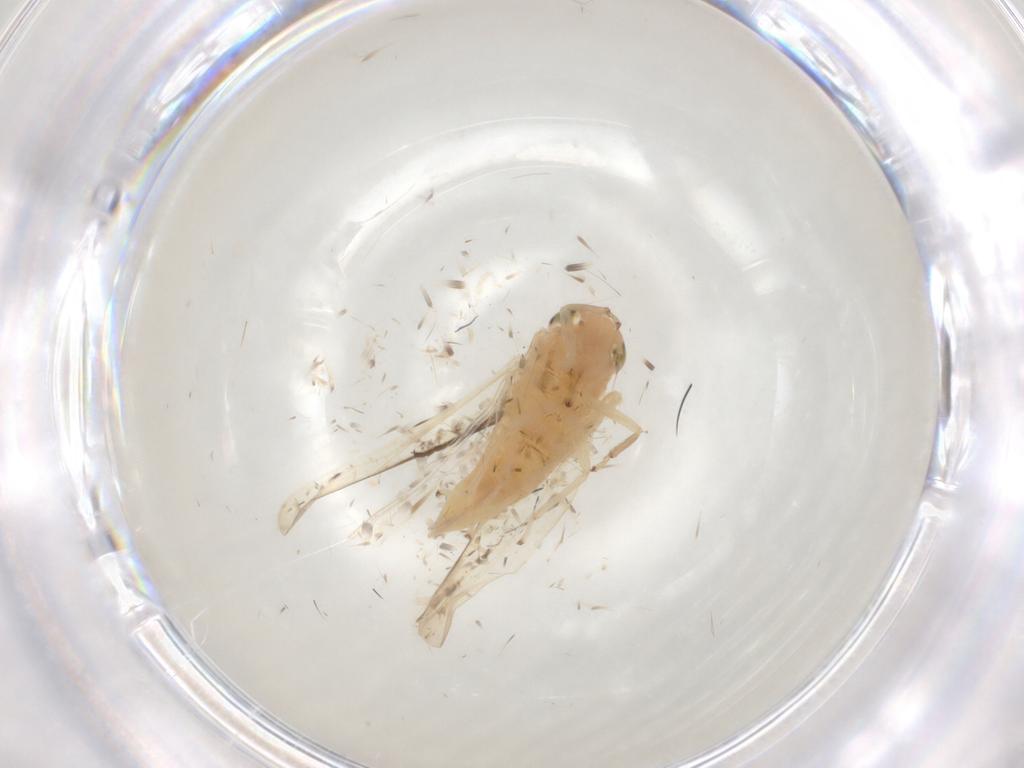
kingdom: Animalia
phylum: Arthropoda
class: Insecta
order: Hemiptera
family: Cicadellidae
